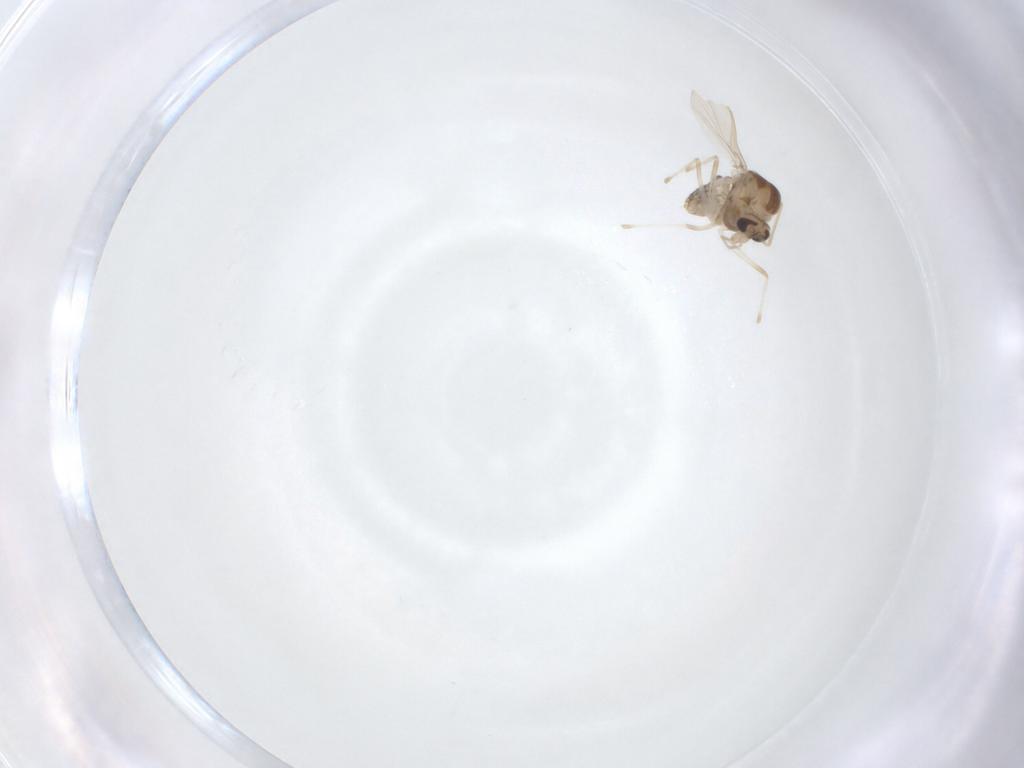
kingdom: Animalia
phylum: Arthropoda
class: Insecta
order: Diptera
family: Chironomidae
